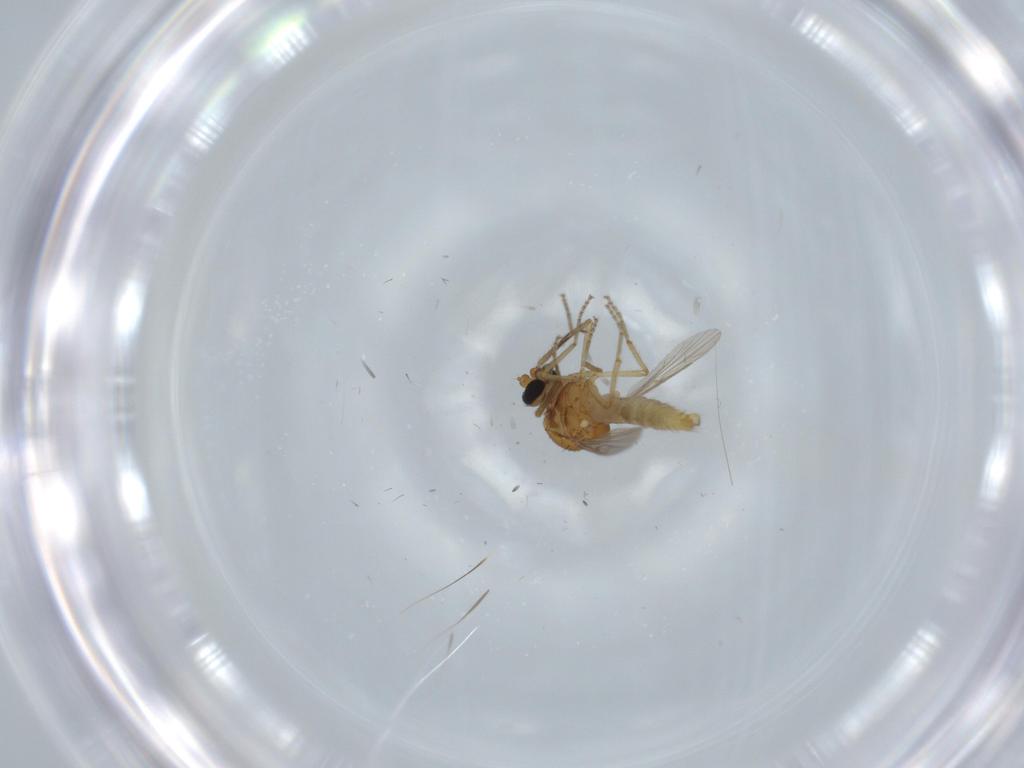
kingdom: Animalia
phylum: Arthropoda
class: Insecta
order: Diptera
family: Ceratopogonidae
